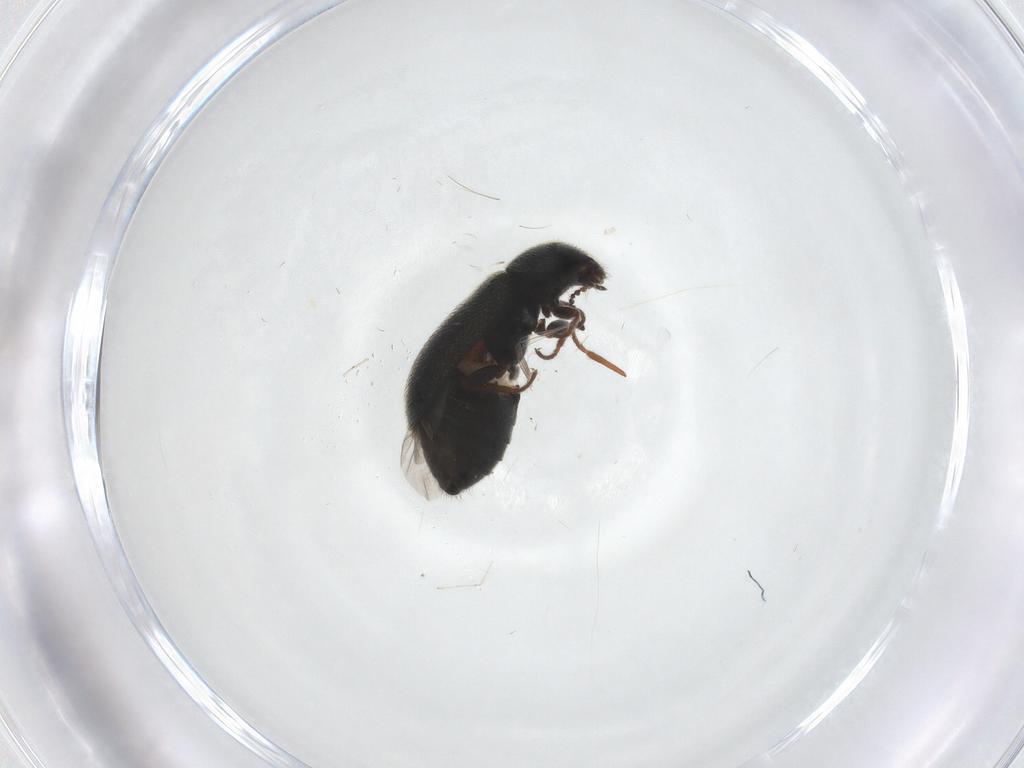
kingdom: Animalia
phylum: Arthropoda
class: Insecta
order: Coleoptera
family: Melyridae
